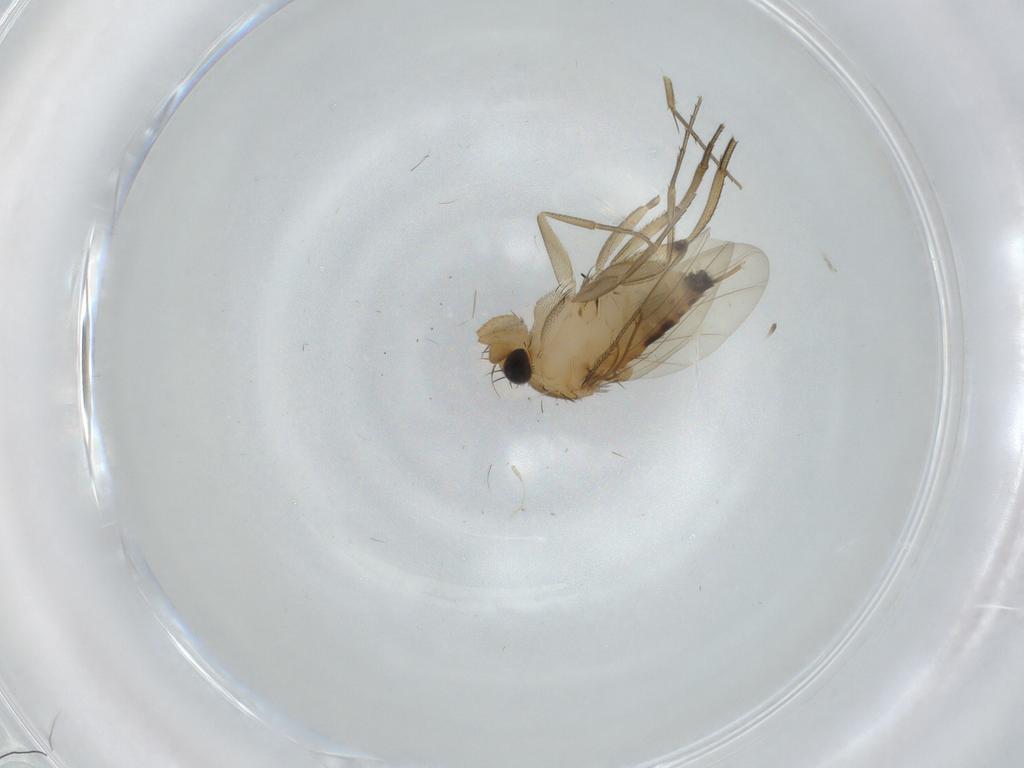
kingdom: Animalia
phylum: Arthropoda
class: Insecta
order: Diptera
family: Phoridae
